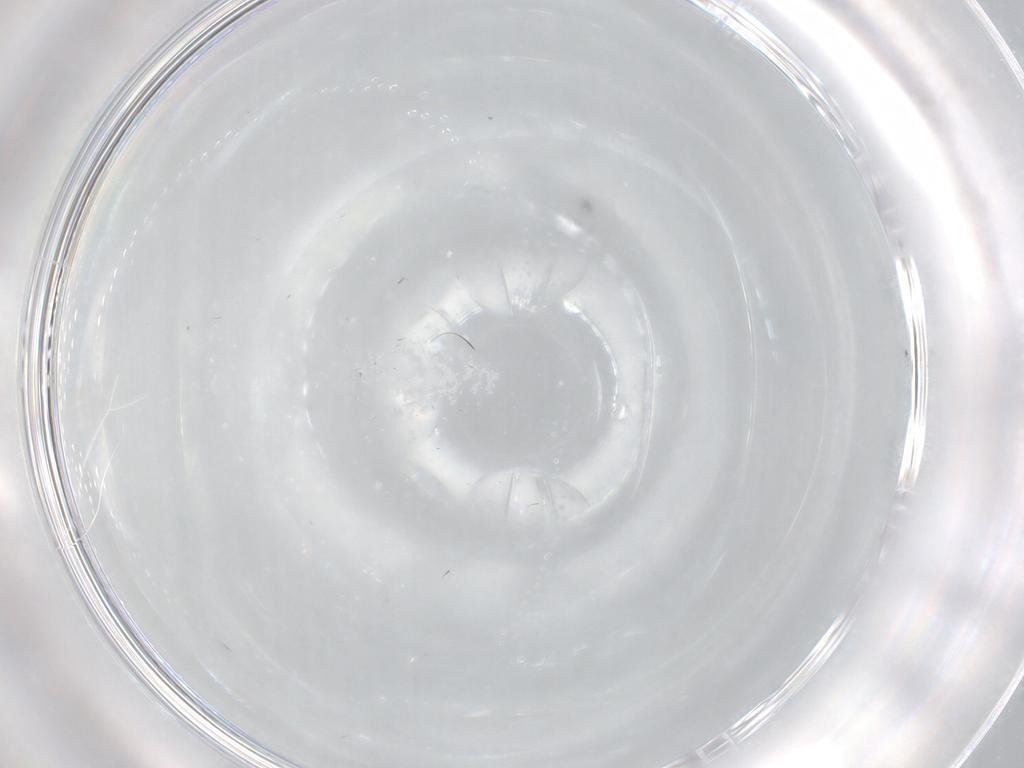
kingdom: Animalia
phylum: Arthropoda
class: Insecta
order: Diptera
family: Cecidomyiidae
